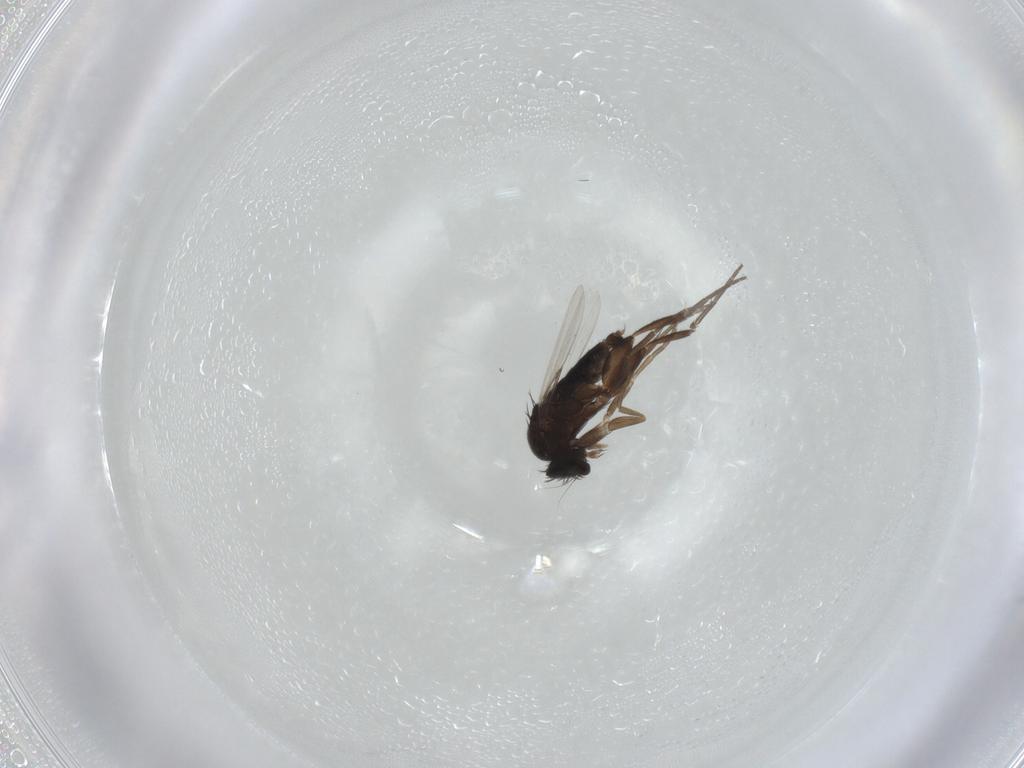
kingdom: Animalia
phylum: Arthropoda
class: Insecta
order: Diptera
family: Phoridae
